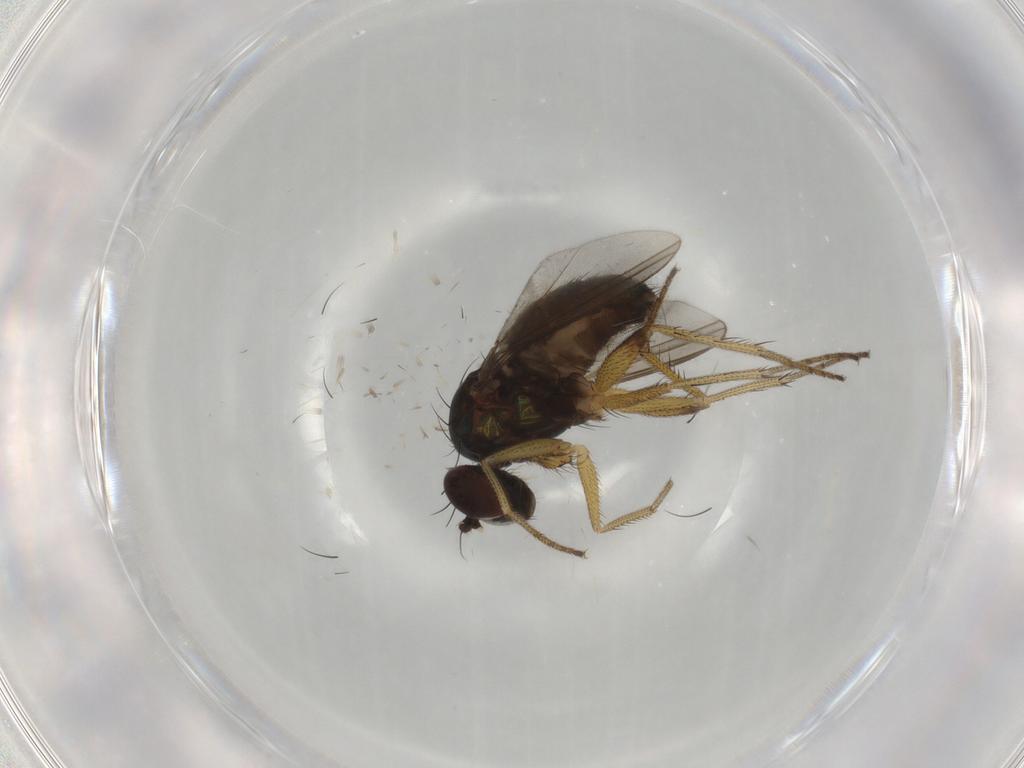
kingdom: Animalia
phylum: Arthropoda
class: Insecta
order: Diptera
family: Dolichopodidae
